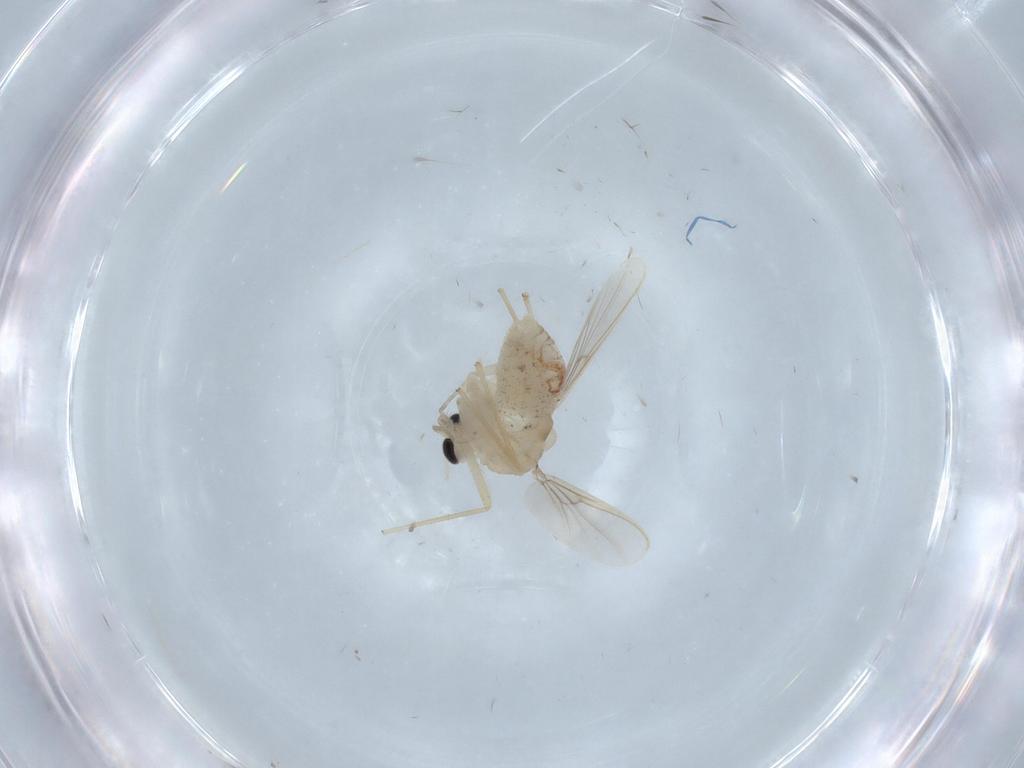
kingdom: Animalia
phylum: Arthropoda
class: Insecta
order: Diptera
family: Chironomidae
